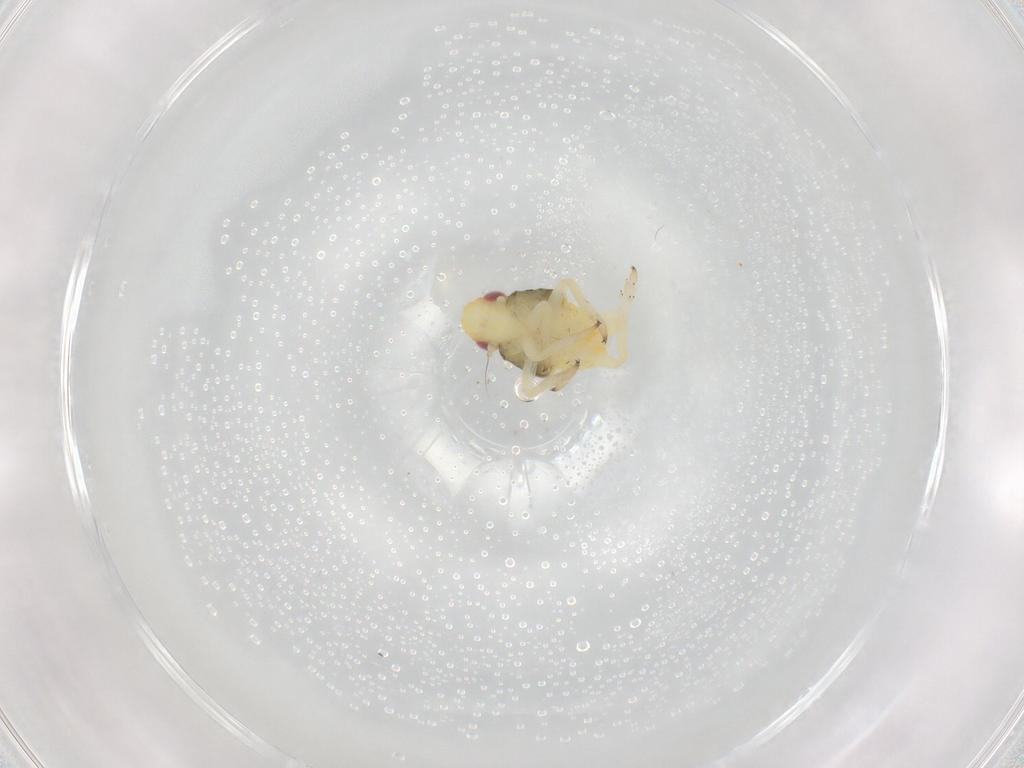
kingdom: Animalia
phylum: Arthropoda
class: Insecta
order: Hemiptera
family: Caliscelidae
